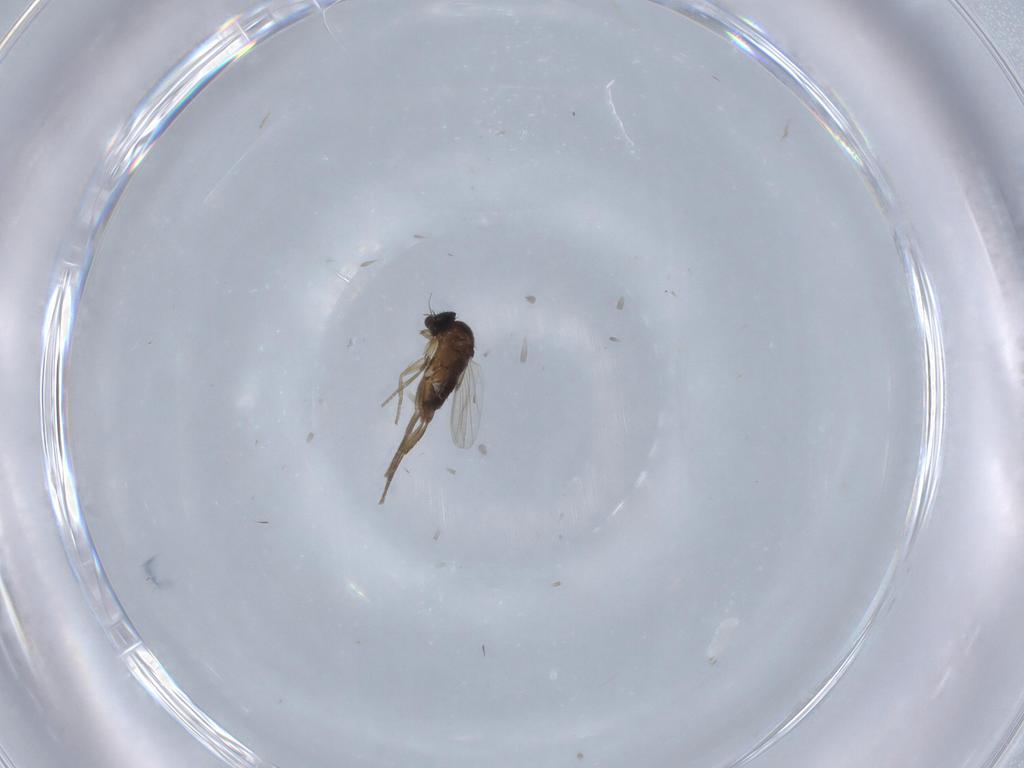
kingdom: Animalia
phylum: Arthropoda
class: Insecta
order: Diptera
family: Phoridae
